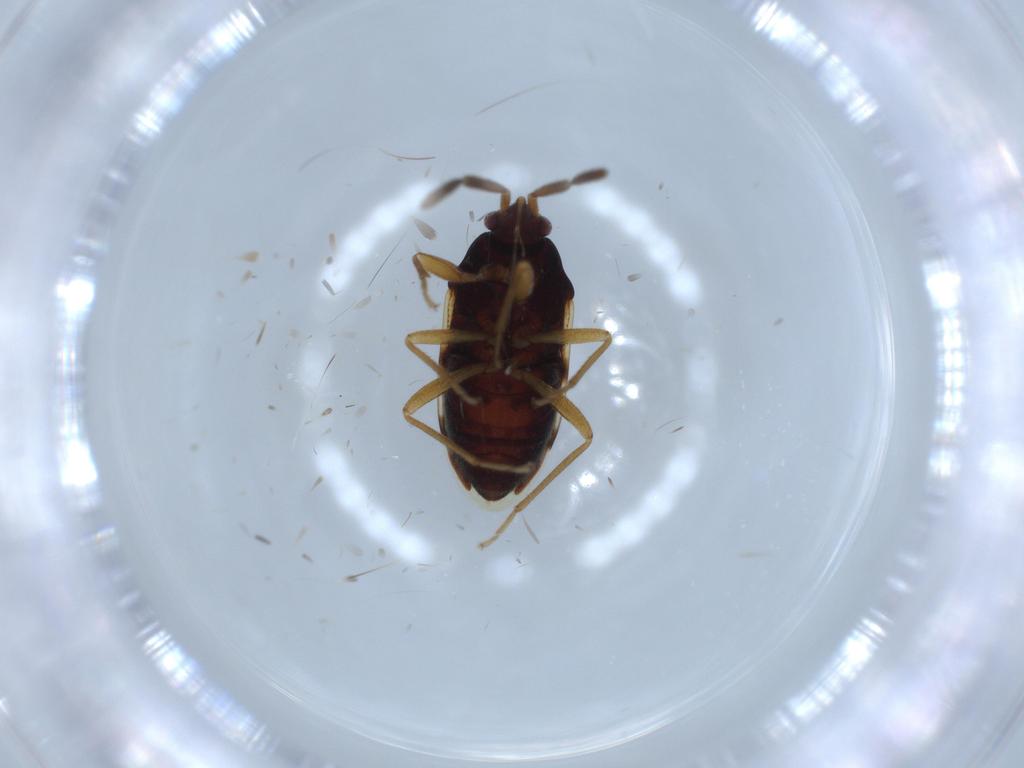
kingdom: Animalia
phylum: Arthropoda
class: Insecta
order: Hemiptera
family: Rhyparochromidae
